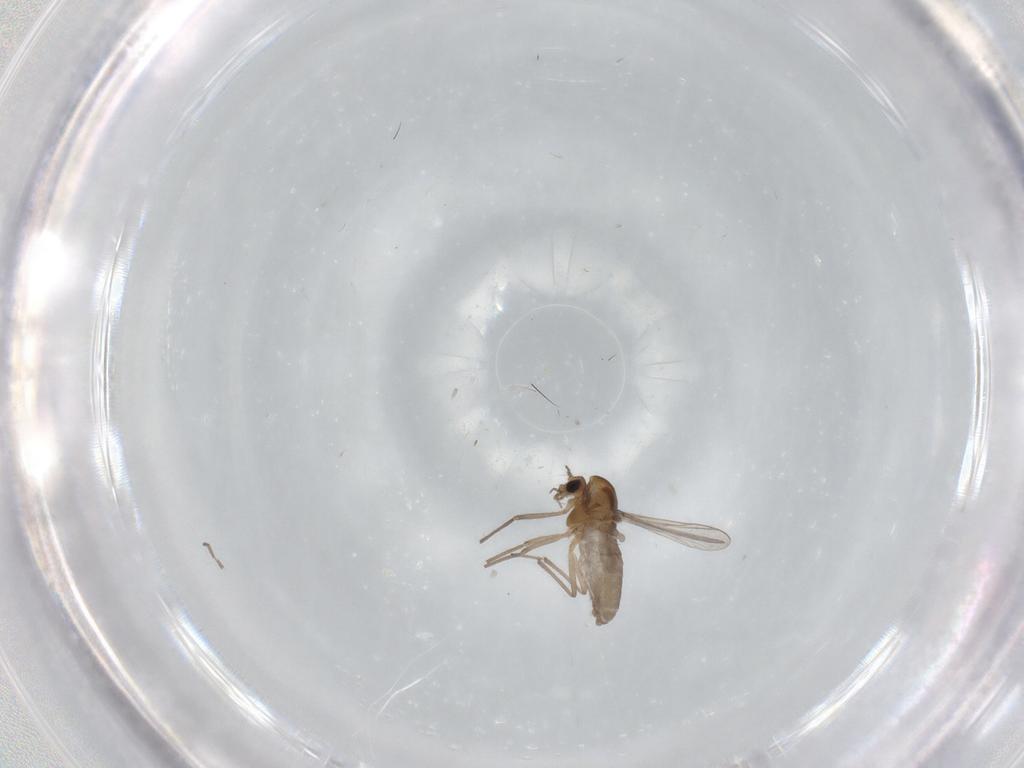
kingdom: Animalia
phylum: Arthropoda
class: Insecta
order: Diptera
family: Chironomidae
